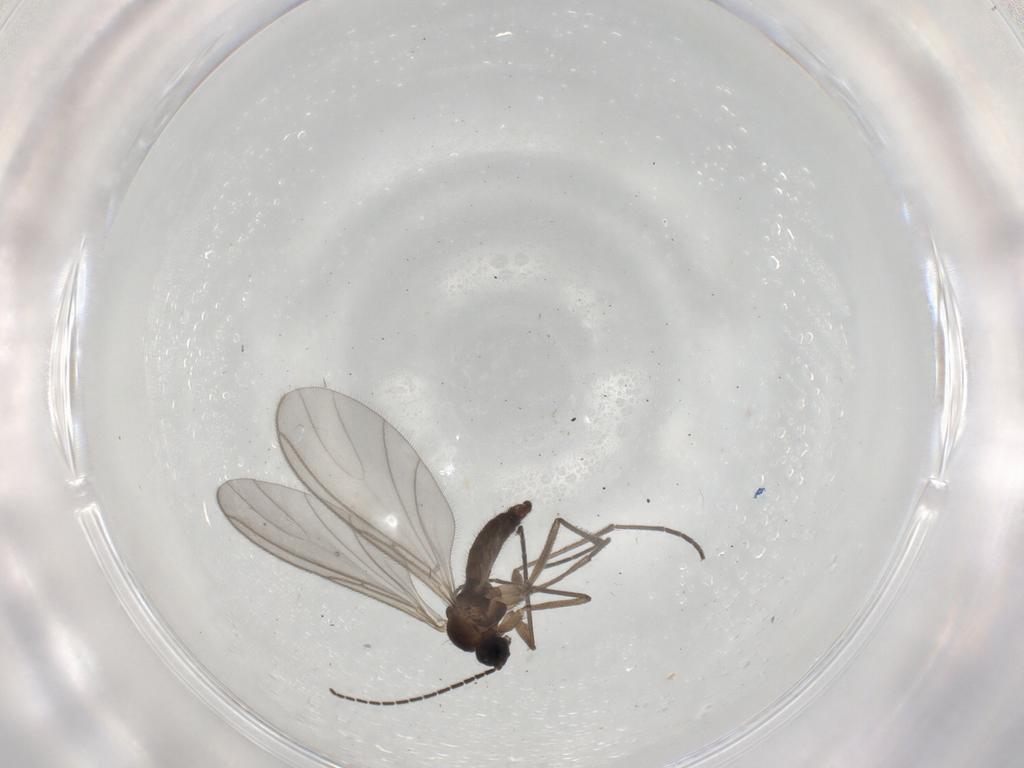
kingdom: Animalia
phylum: Arthropoda
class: Insecta
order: Diptera
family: Sciaridae
